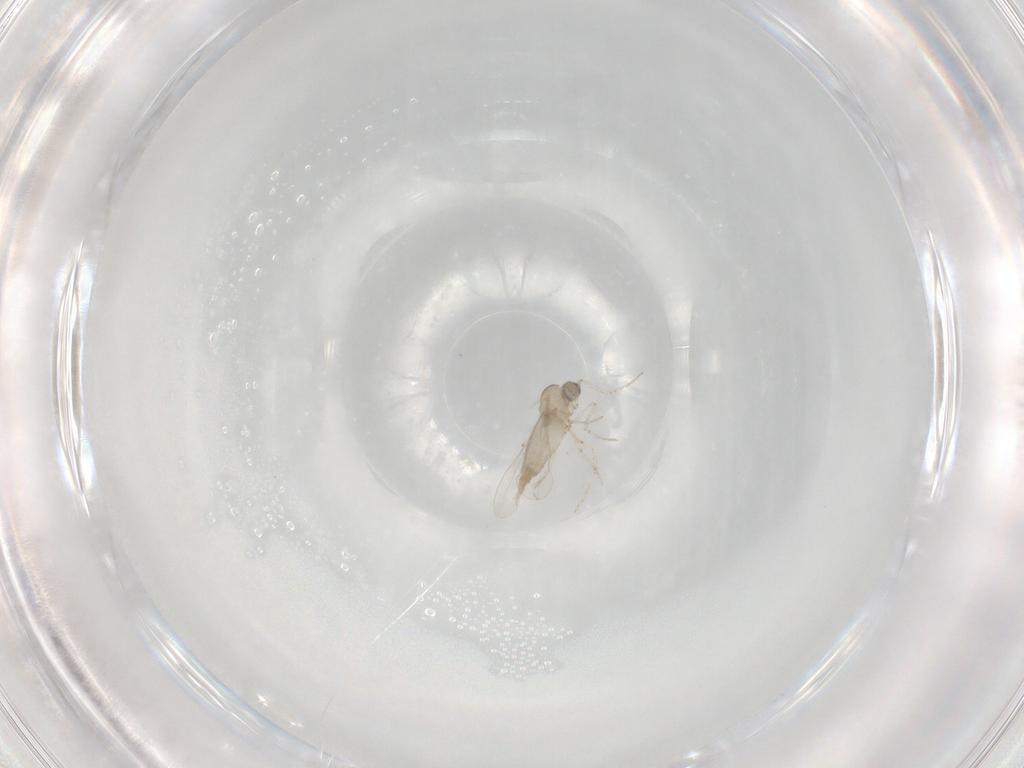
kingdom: Animalia
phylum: Arthropoda
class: Insecta
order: Diptera
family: Cecidomyiidae
